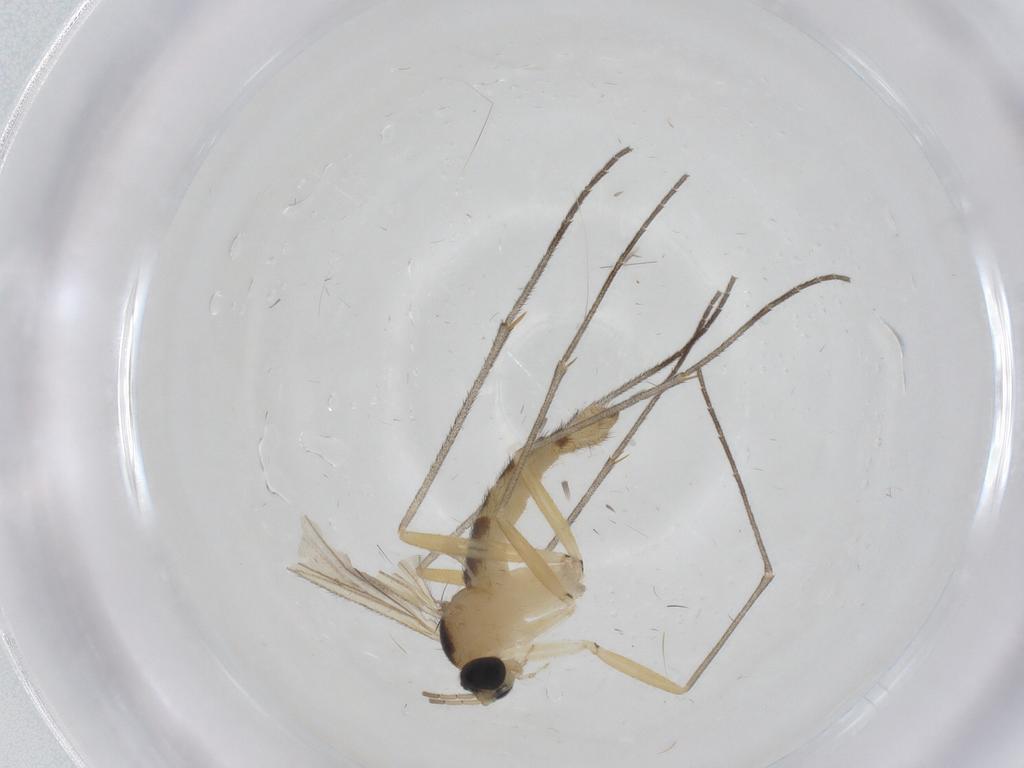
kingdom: Animalia
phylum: Arthropoda
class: Insecta
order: Diptera
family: Sciaridae
